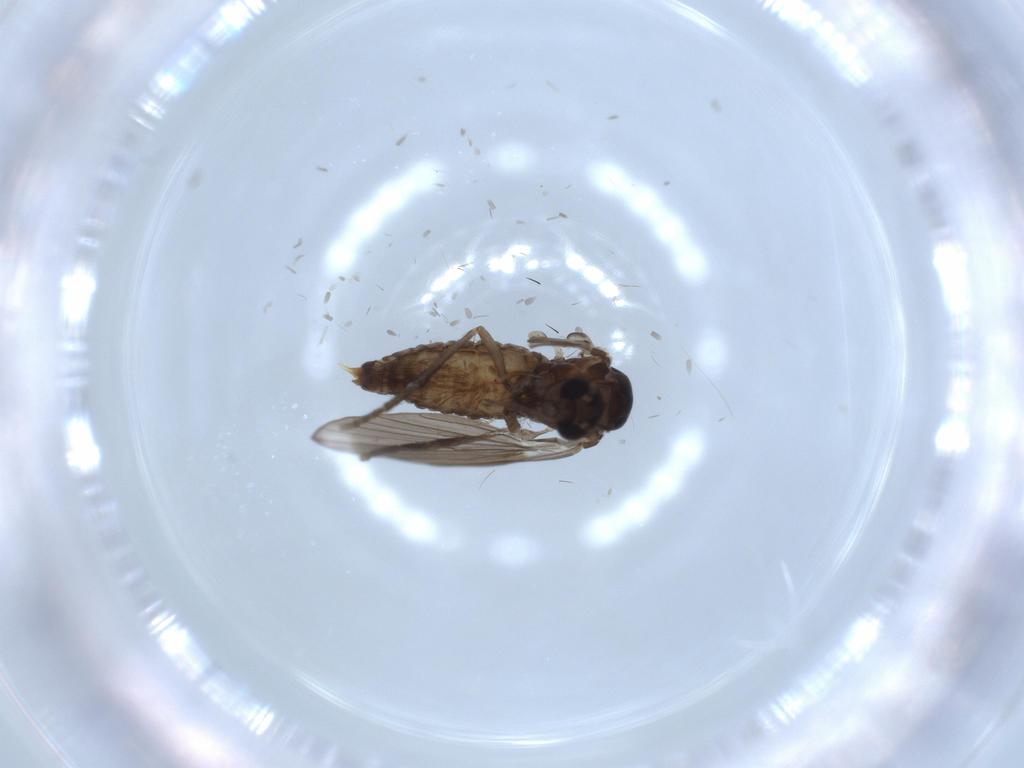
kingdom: Animalia
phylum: Arthropoda
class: Insecta
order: Diptera
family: Psychodidae
